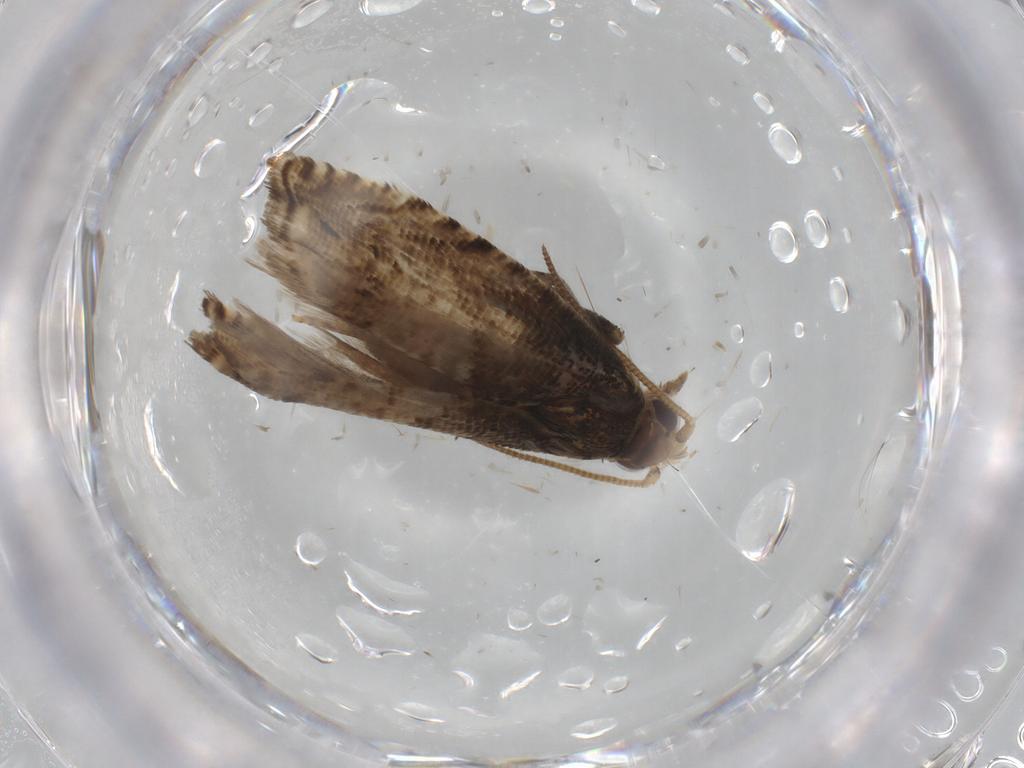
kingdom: Animalia
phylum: Arthropoda
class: Insecta
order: Lepidoptera
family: Tortricidae
